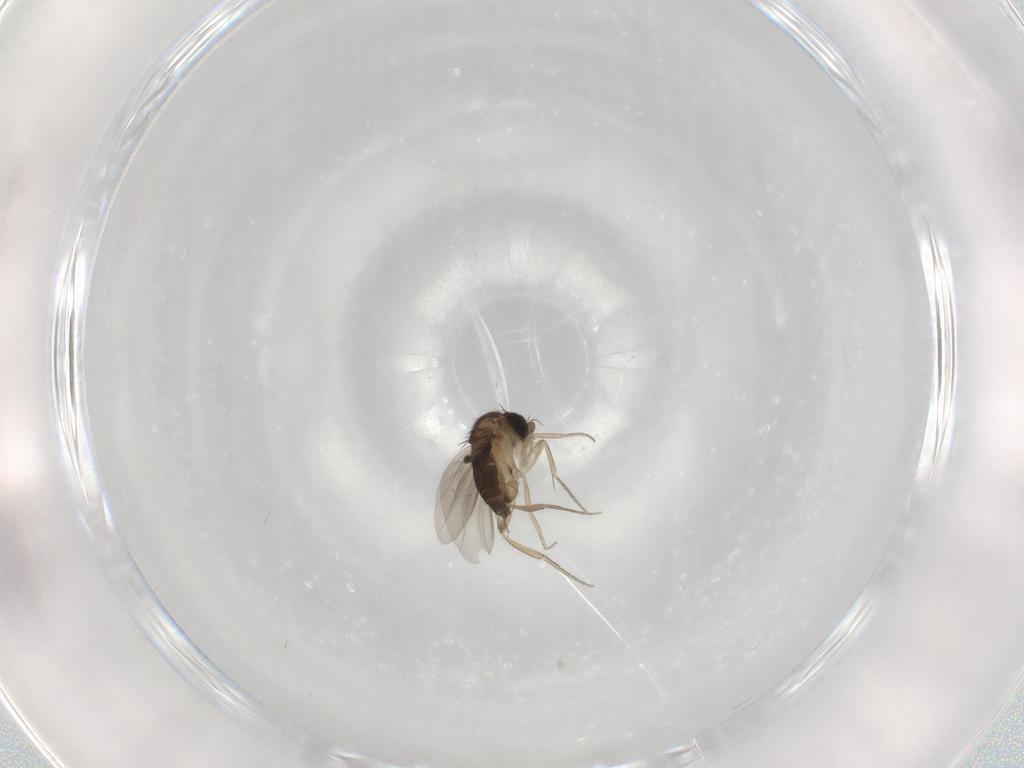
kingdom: Animalia
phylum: Arthropoda
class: Insecta
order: Diptera
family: Phoridae
